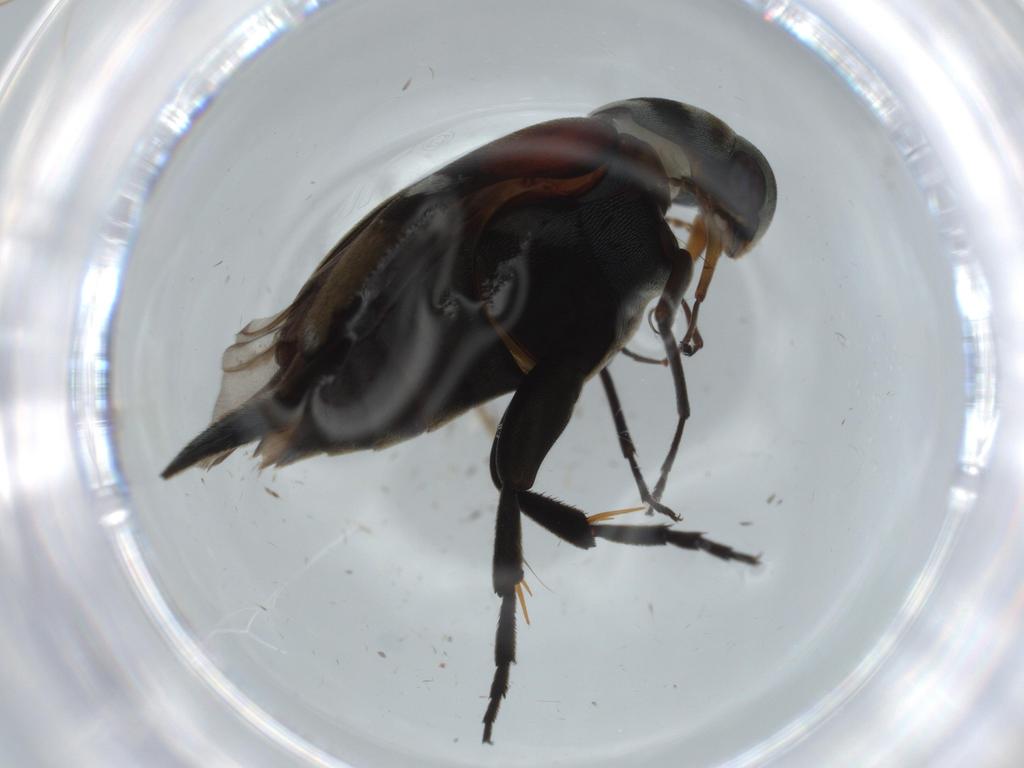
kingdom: Animalia
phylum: Arthropoda
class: Insecta
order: Coleoptera
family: Mordellidae
